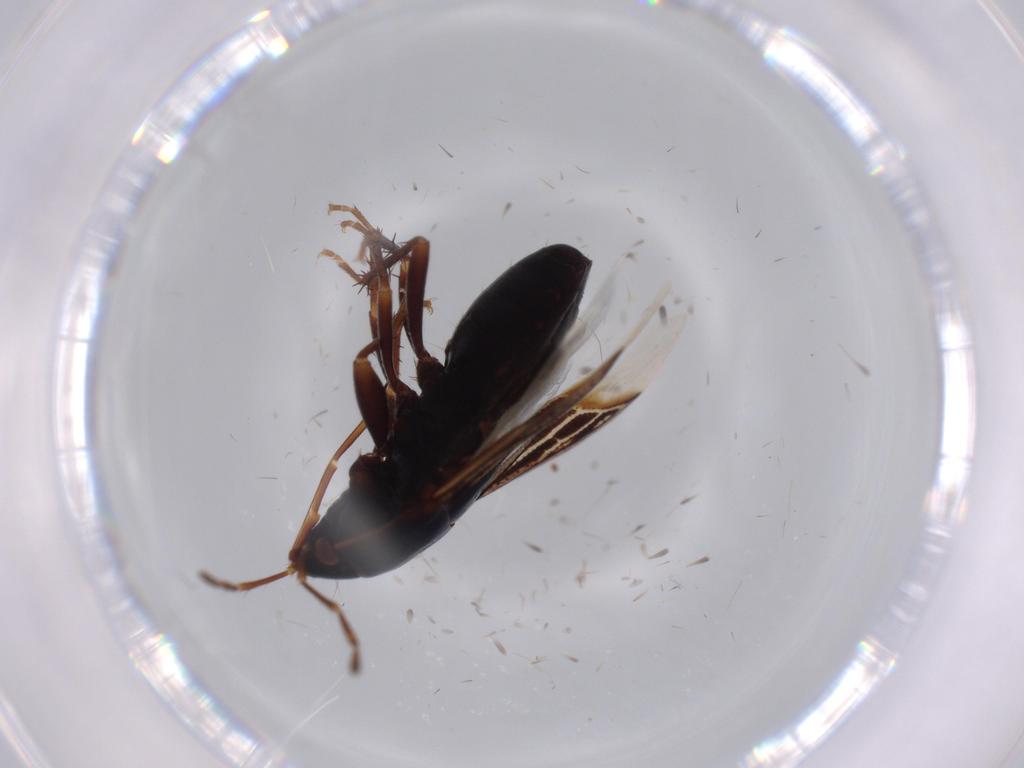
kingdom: Animalia
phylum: Arthropoda
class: Insecta
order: Hemiptera
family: Rhyparochromidae
